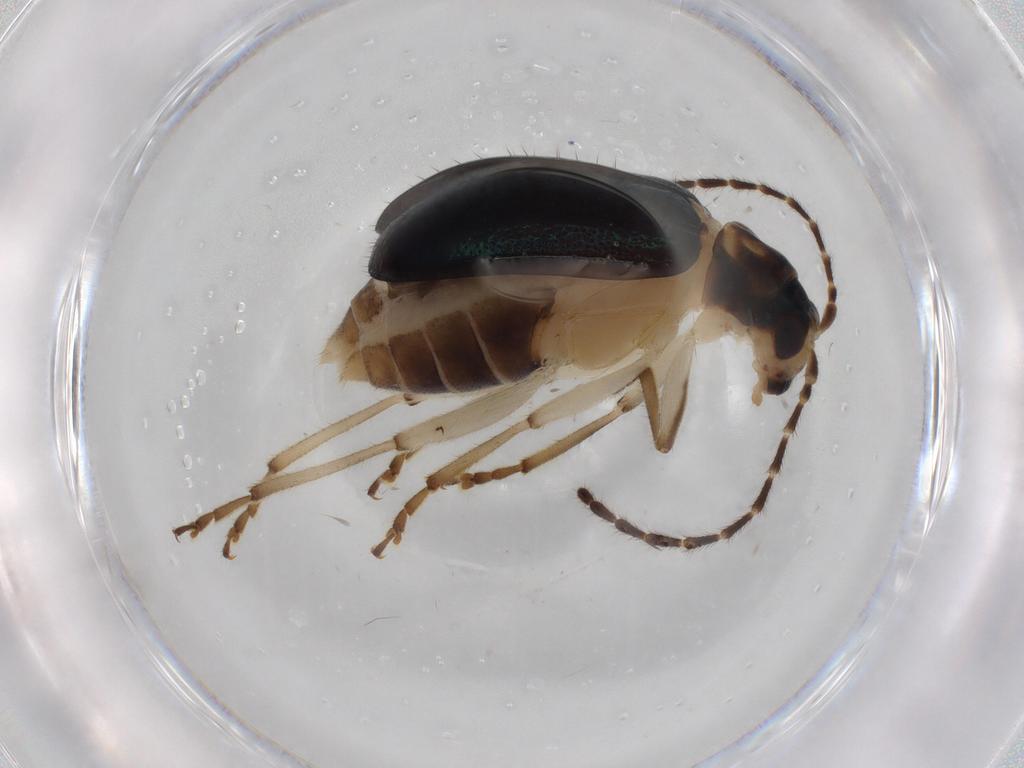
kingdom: Animalia
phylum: Arthropoda
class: Insecta
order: Coleoptera
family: Chrysomelidae
